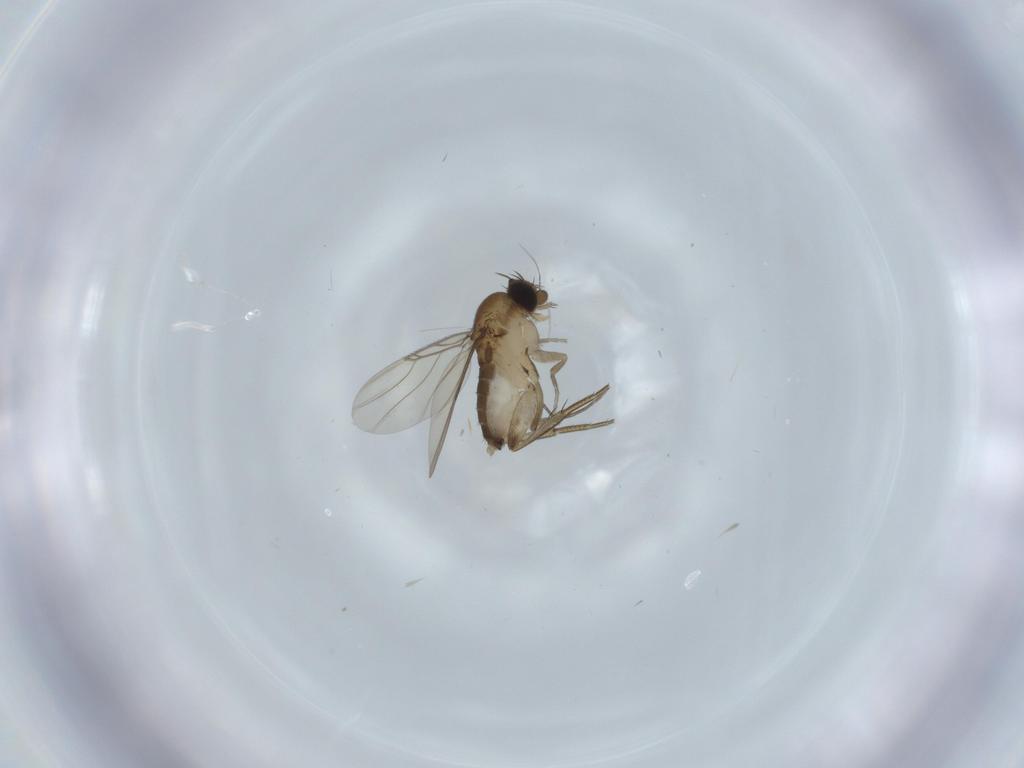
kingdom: Animalia
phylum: Arthropoda
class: Insecta
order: Diptera
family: Phoridae
